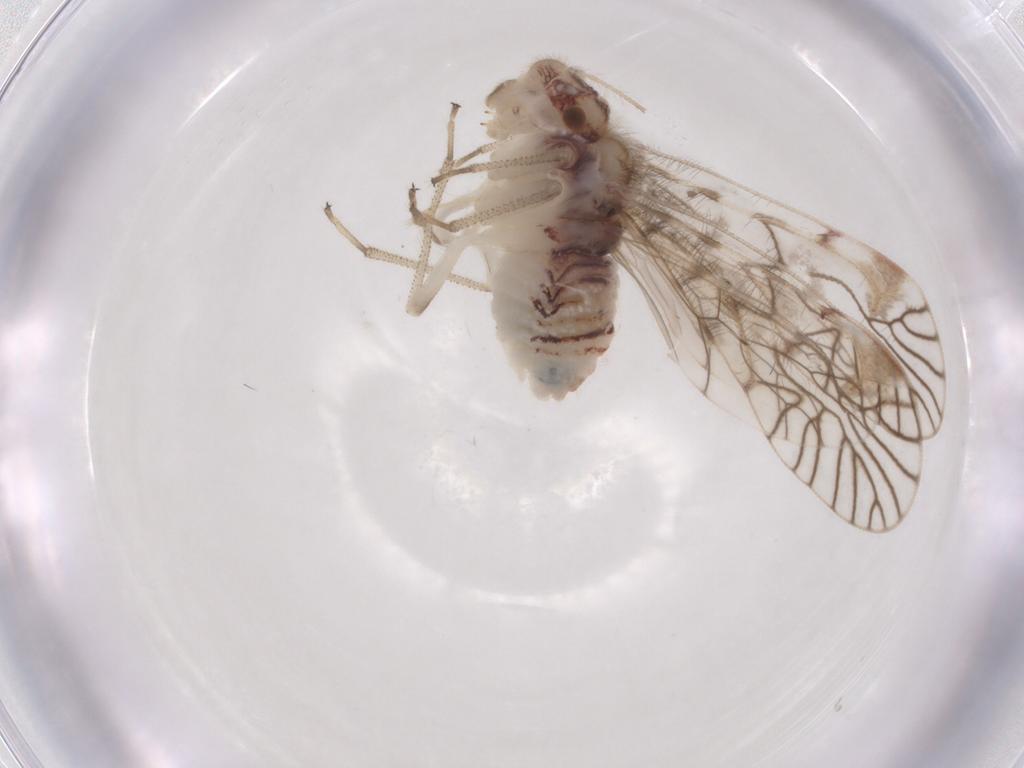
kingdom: Animalia
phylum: Arthropoda
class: Insecta
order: Psocodea
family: Amphipsocidae
